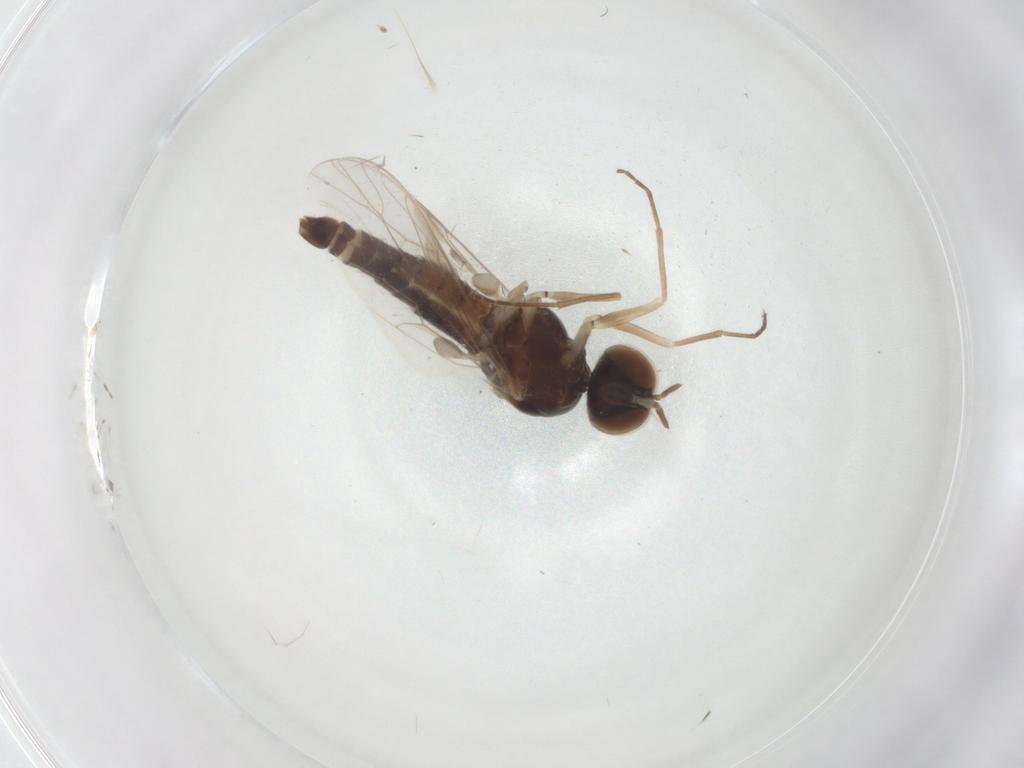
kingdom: Animalia
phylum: Arthropoda
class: Insecta
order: Diptera
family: Scenopinidae
